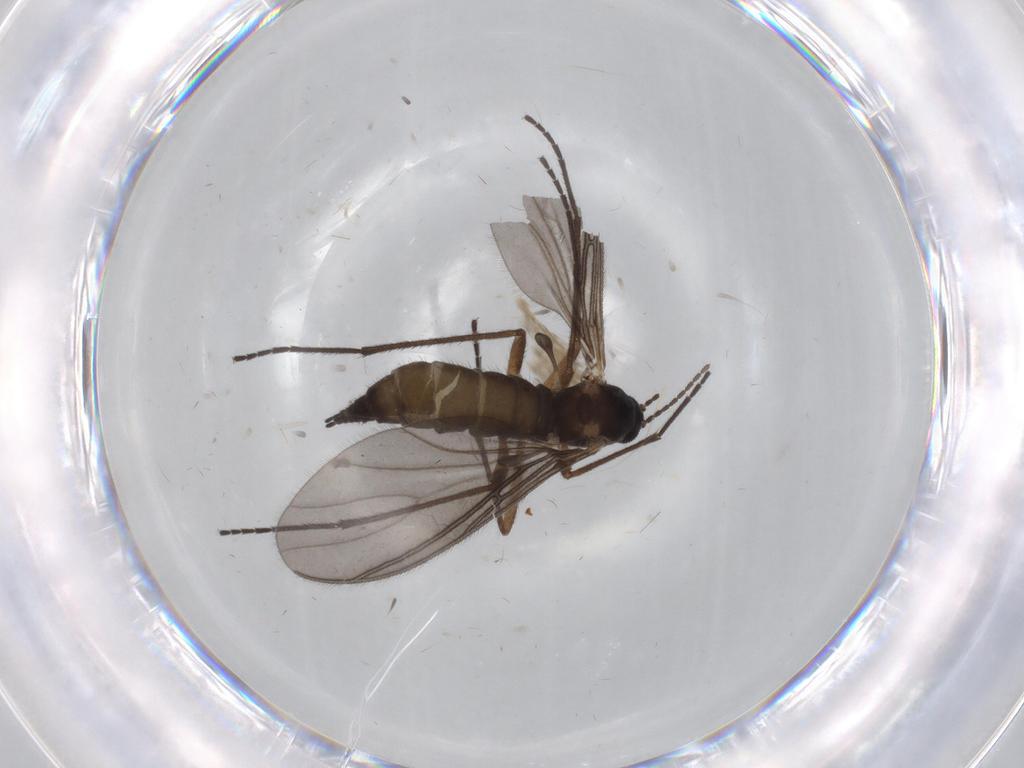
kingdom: Animalia
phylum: Arthropoda
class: Insecta
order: Diptera
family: Sciaridae
